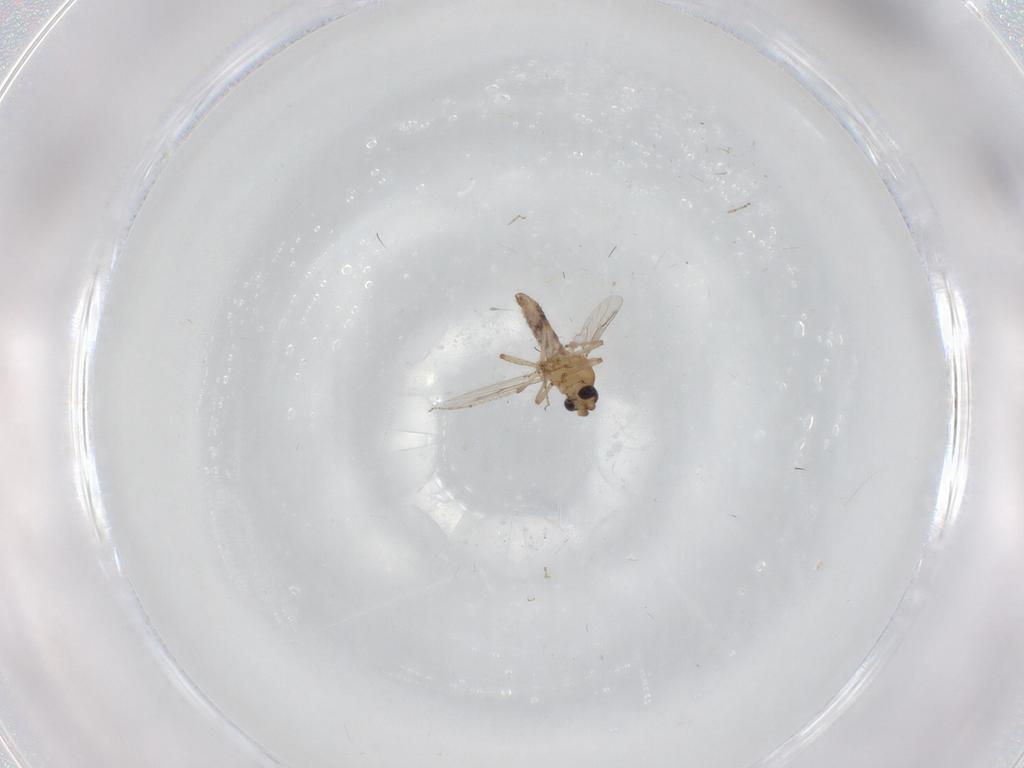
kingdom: Animalia
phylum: Arthropoda
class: Insecta
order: Diptera
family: Ceratopogonidae
